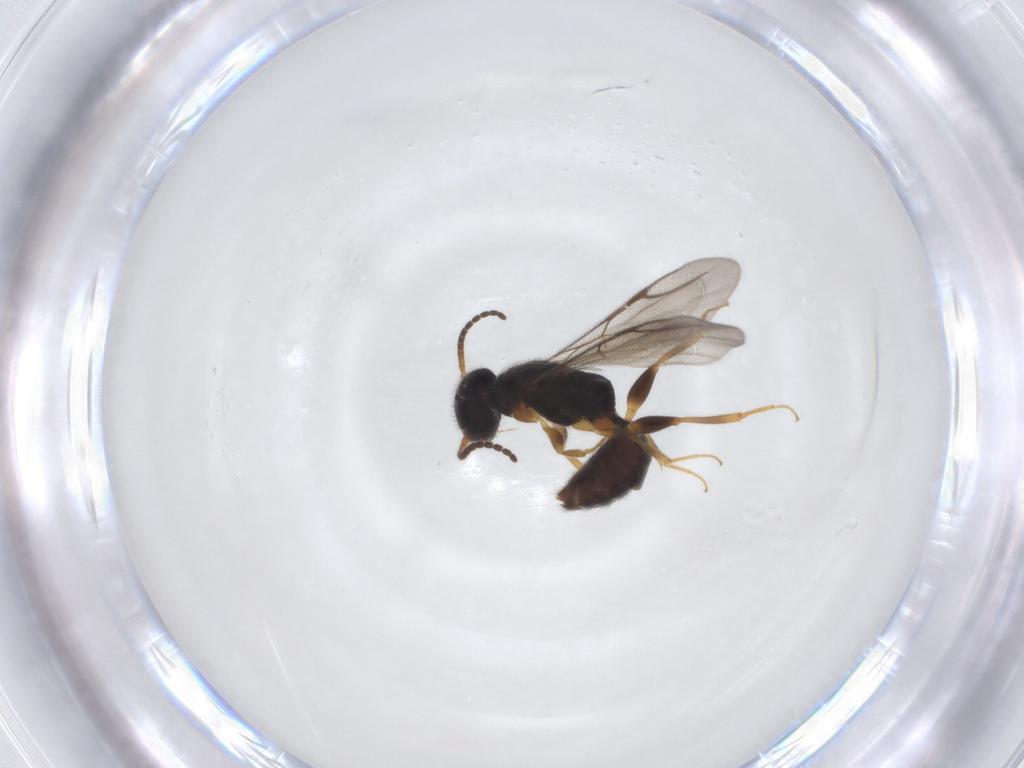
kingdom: Animalia
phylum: Arthropoda
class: Insecta
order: Hymenoptera
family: Bethylidae
